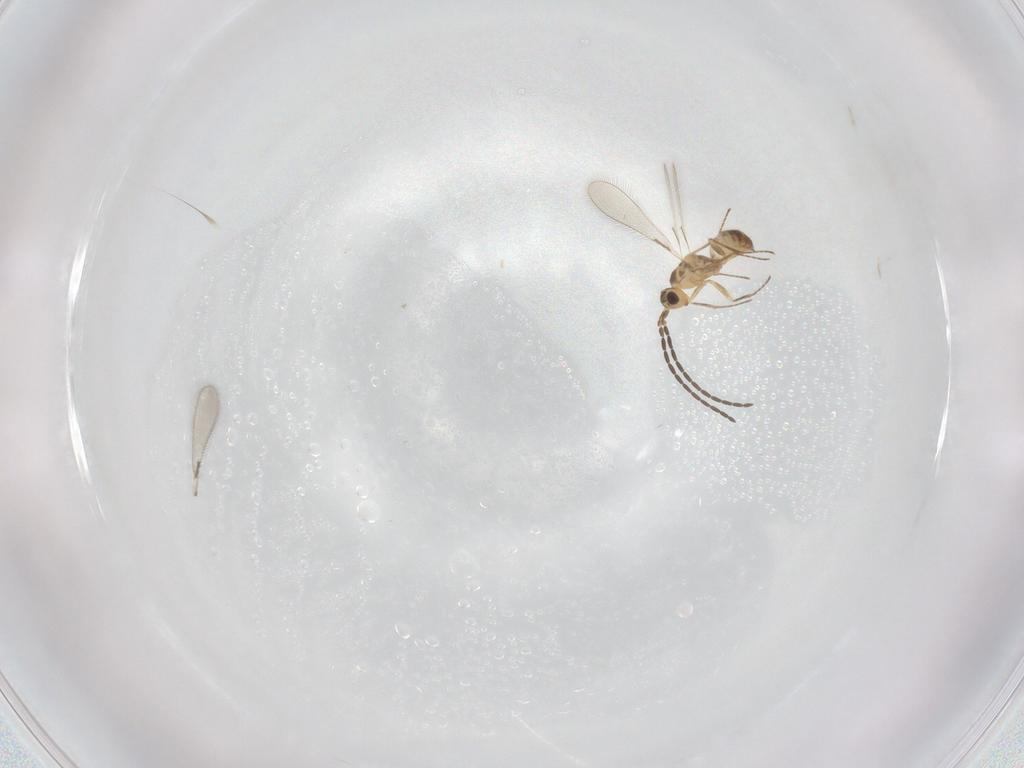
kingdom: Animalia
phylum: Arthropoda
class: Insecta
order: Hymenoptera
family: Mymaridae
